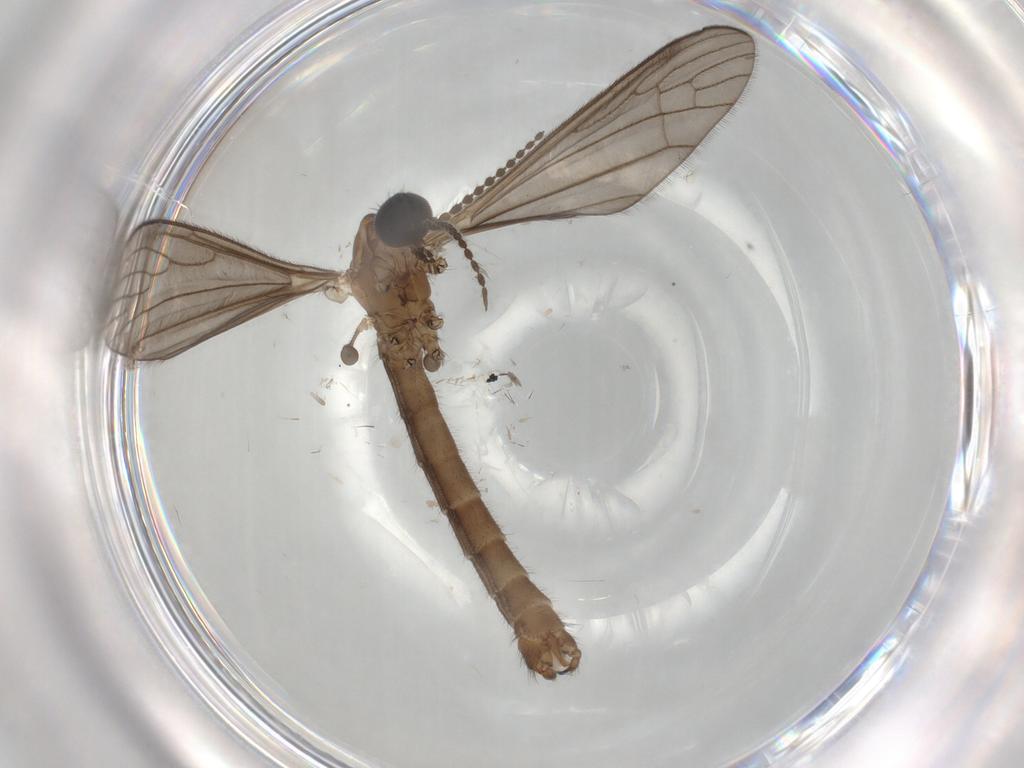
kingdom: Animalia
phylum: Arthropoda
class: Insecta
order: Diptera
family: Limoniidae
